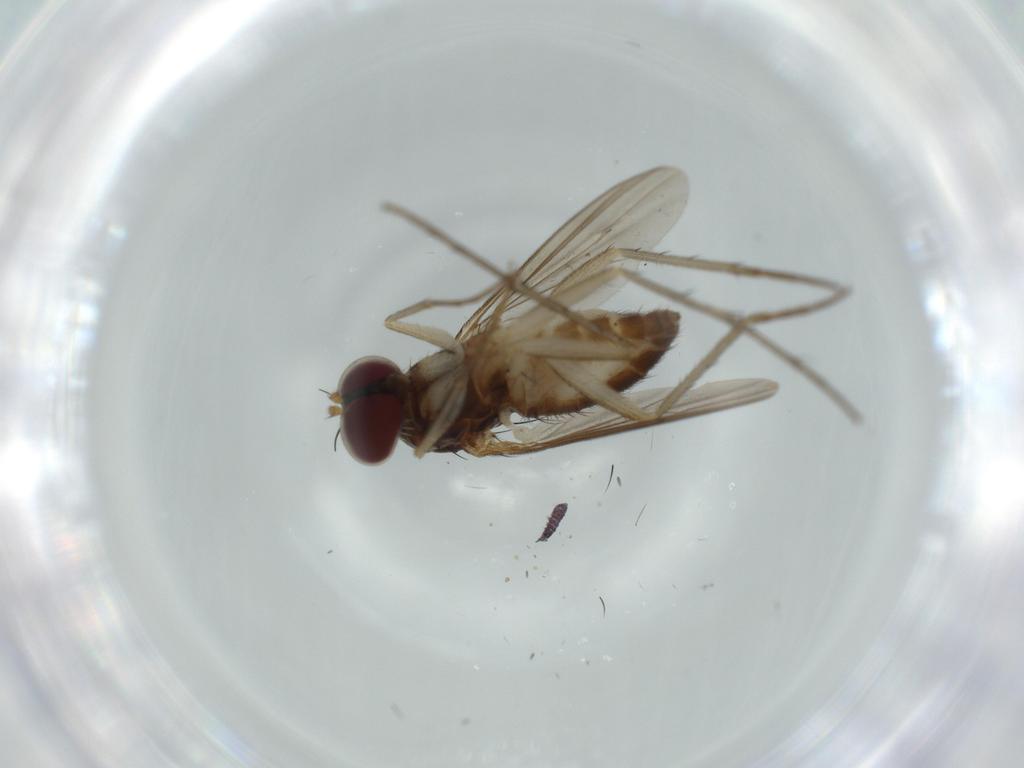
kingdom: Animalia
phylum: Arthropoda
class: Insecta
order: Diptera
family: Dolichopodidae
